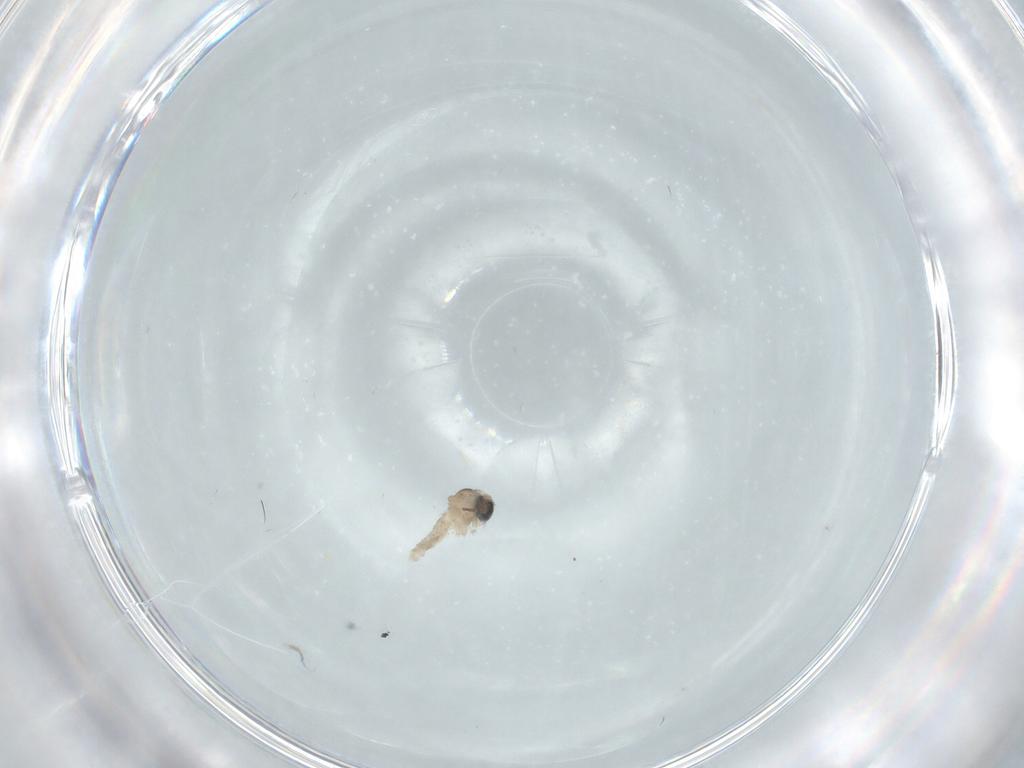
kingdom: Animalia
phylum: Arthropoda
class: Insecta
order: Diptera
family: Cecidomyiidae
